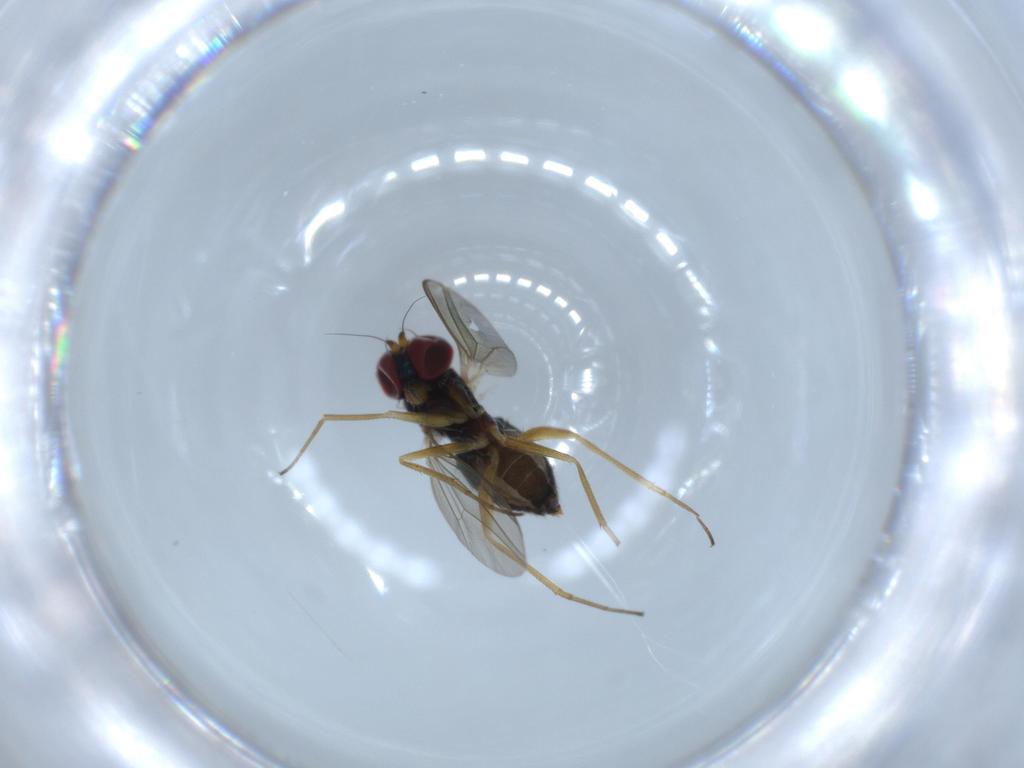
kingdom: Animalia
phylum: Arthropoda
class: Insecta
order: Diptera
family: Dolichopodidae
